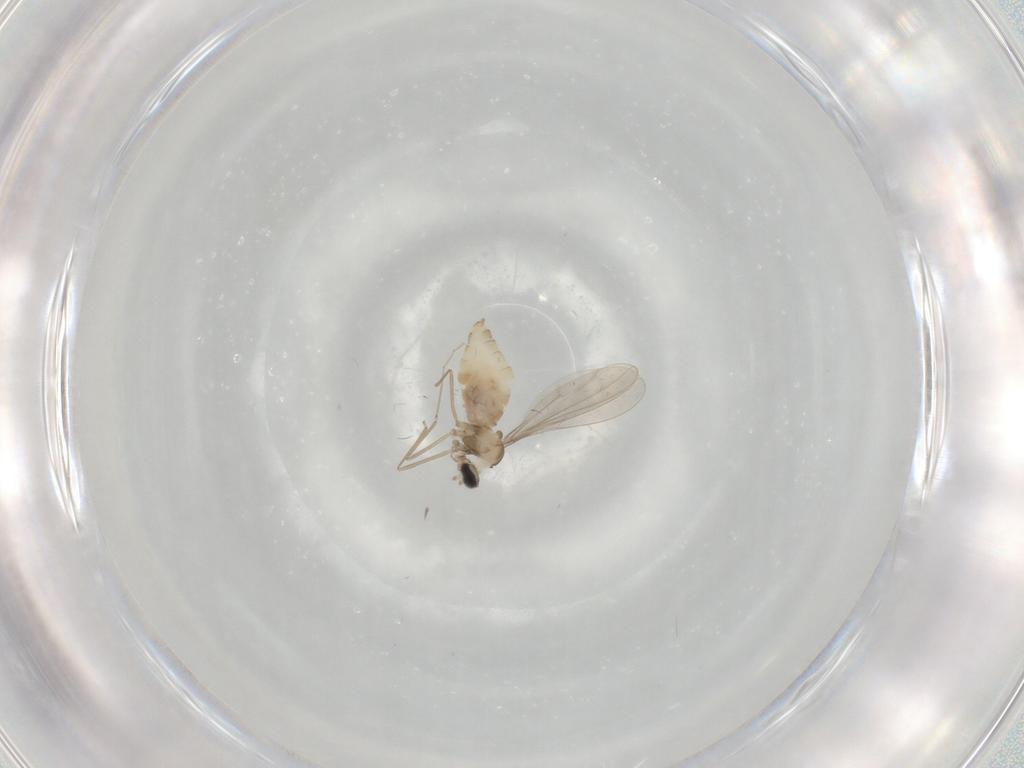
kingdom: Animalia
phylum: Arthropoda
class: Insecta
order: Diptera
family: Cecidomyiidae
